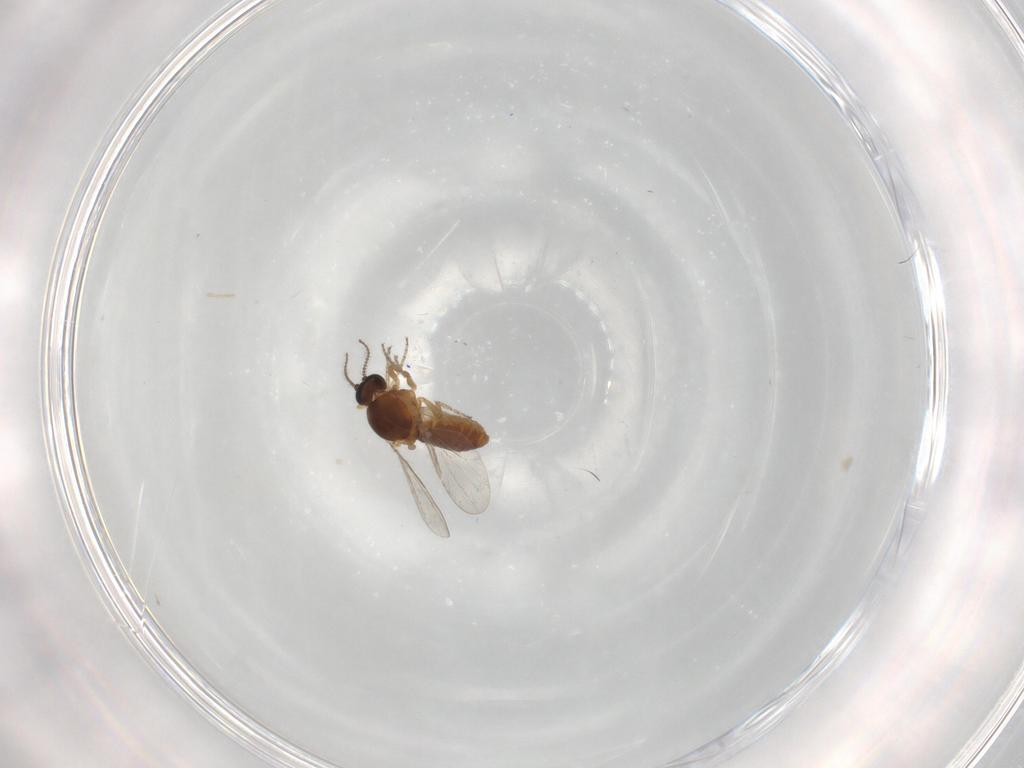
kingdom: Animalia
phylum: Arthropoda
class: Insecta
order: Diptera
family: Ceratopogonidae
